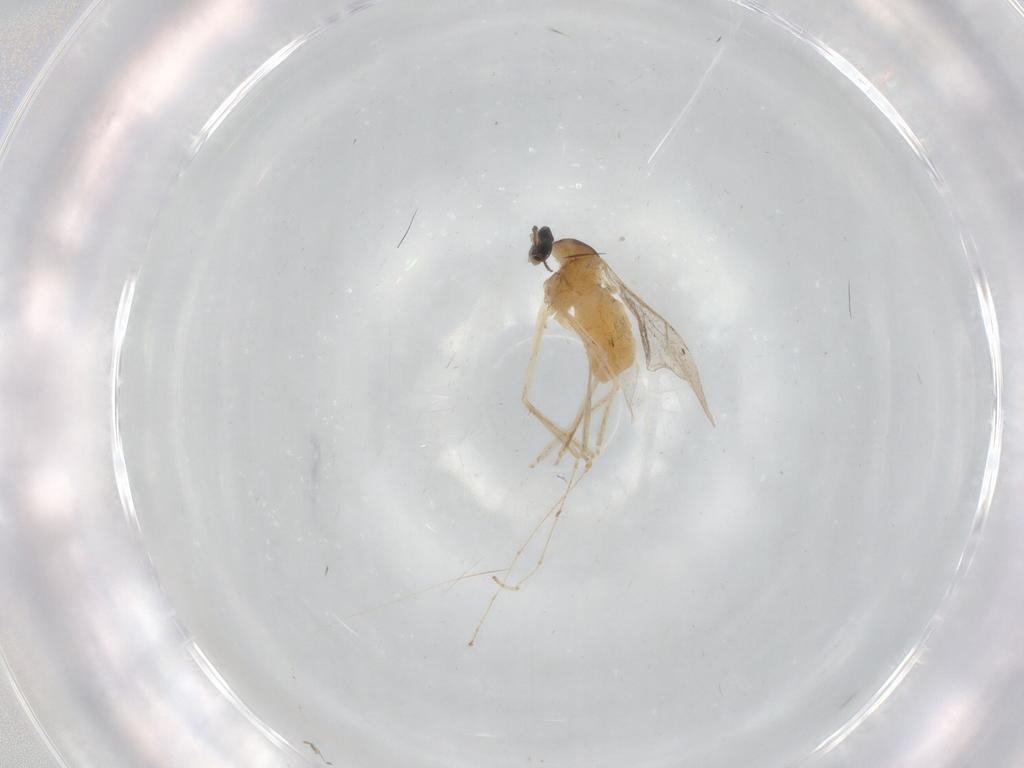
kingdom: Animalia
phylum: Arthropoda
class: Insecta
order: Diptera
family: Cecidomyiidae
